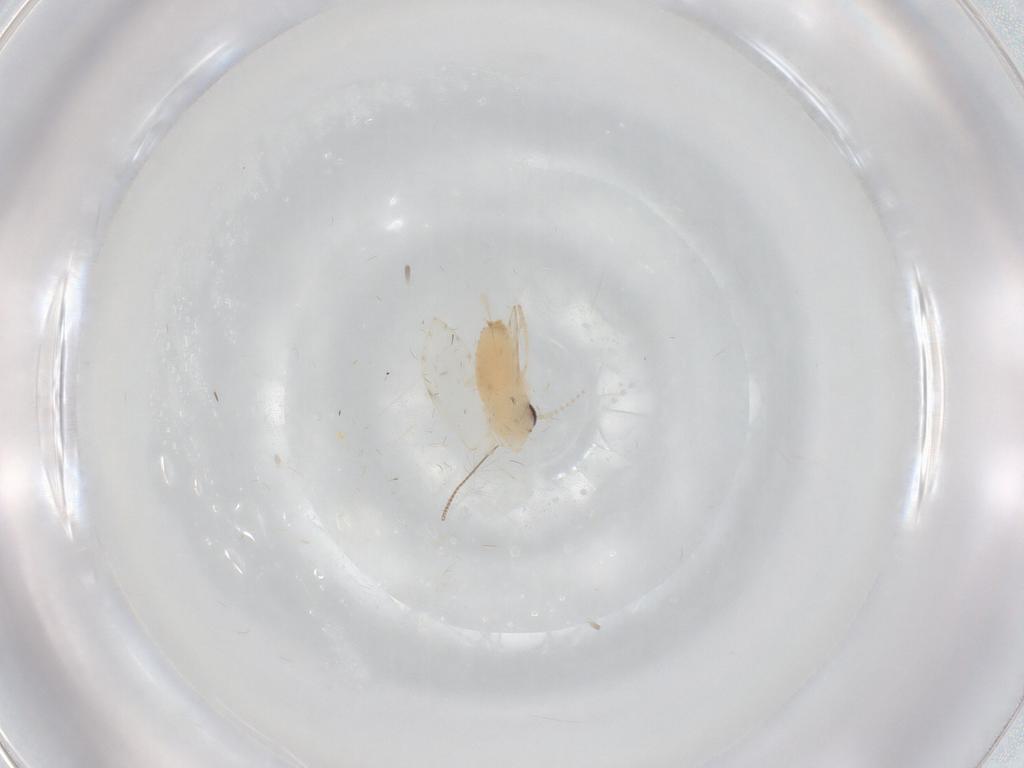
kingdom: Animalia
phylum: Arthropoda
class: Insecta
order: Diptera
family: Psychodidae
